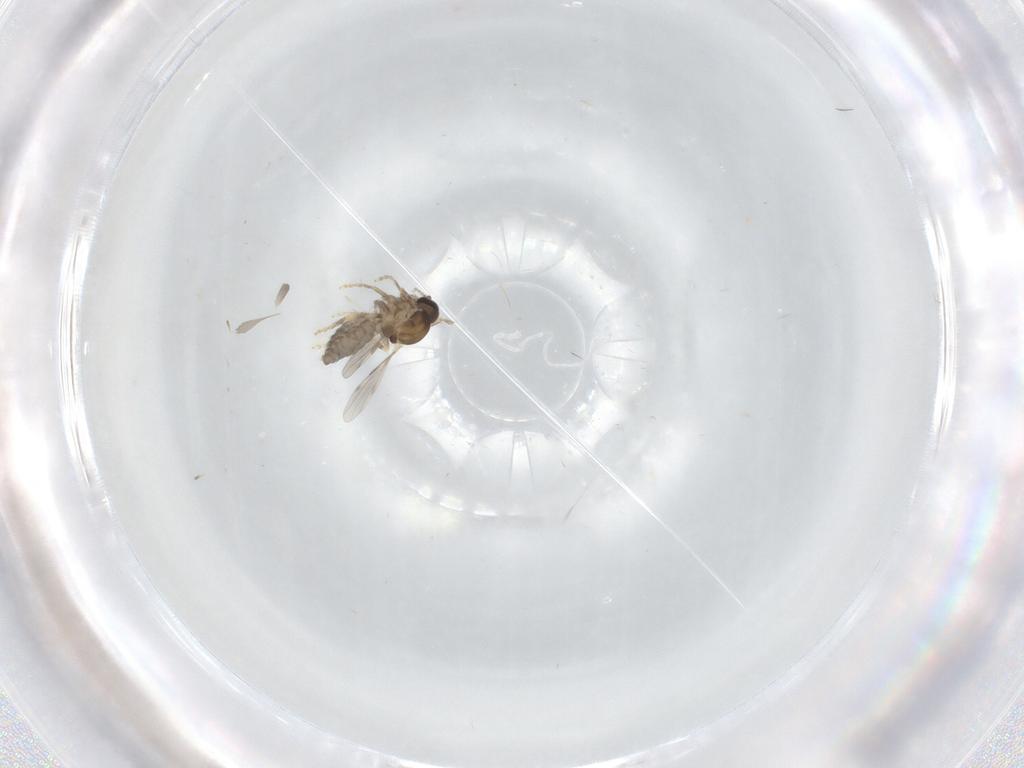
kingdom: Animalia
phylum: Arthropoda
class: Insecta
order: Diptera
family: Ceratopogonidae
